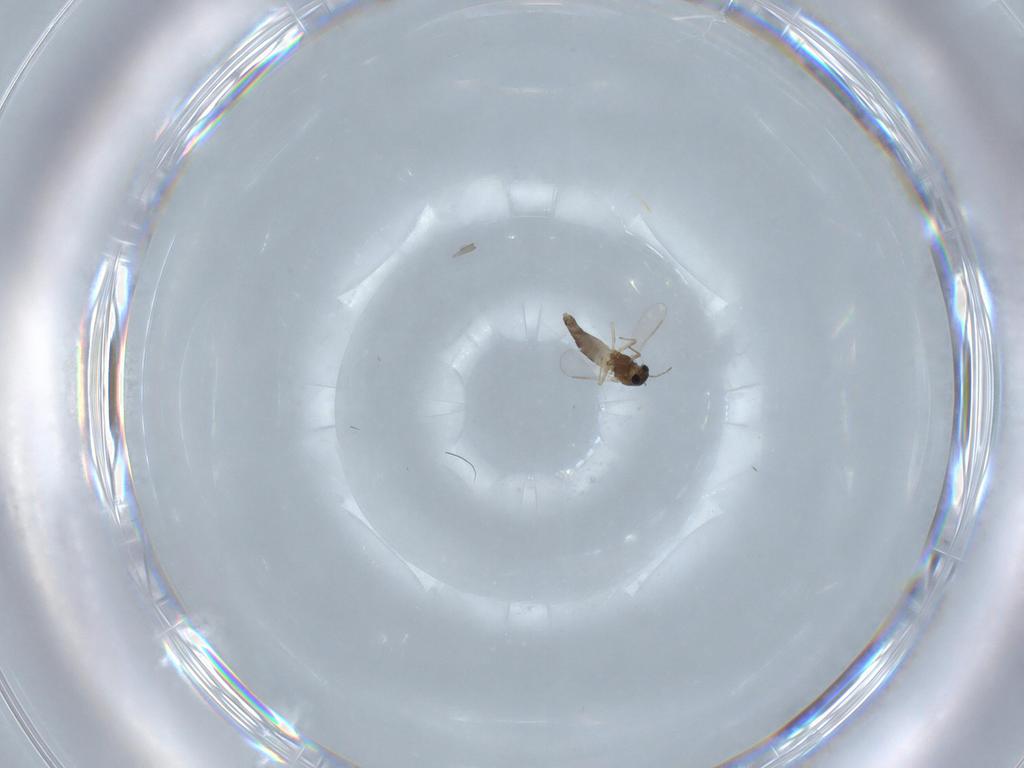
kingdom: Animalia
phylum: Arthropoda
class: Insecta
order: Diptera
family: Chironomidae
